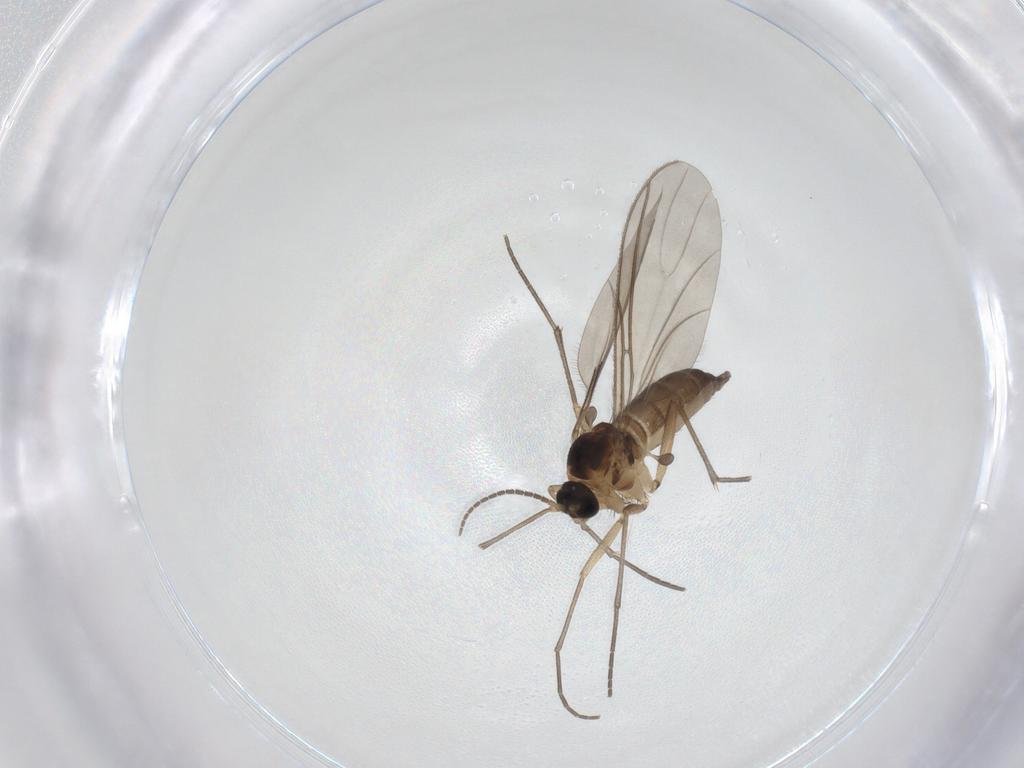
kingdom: Animalia
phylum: Arthropoda
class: Insecta
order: Diptera
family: Sciaridae
